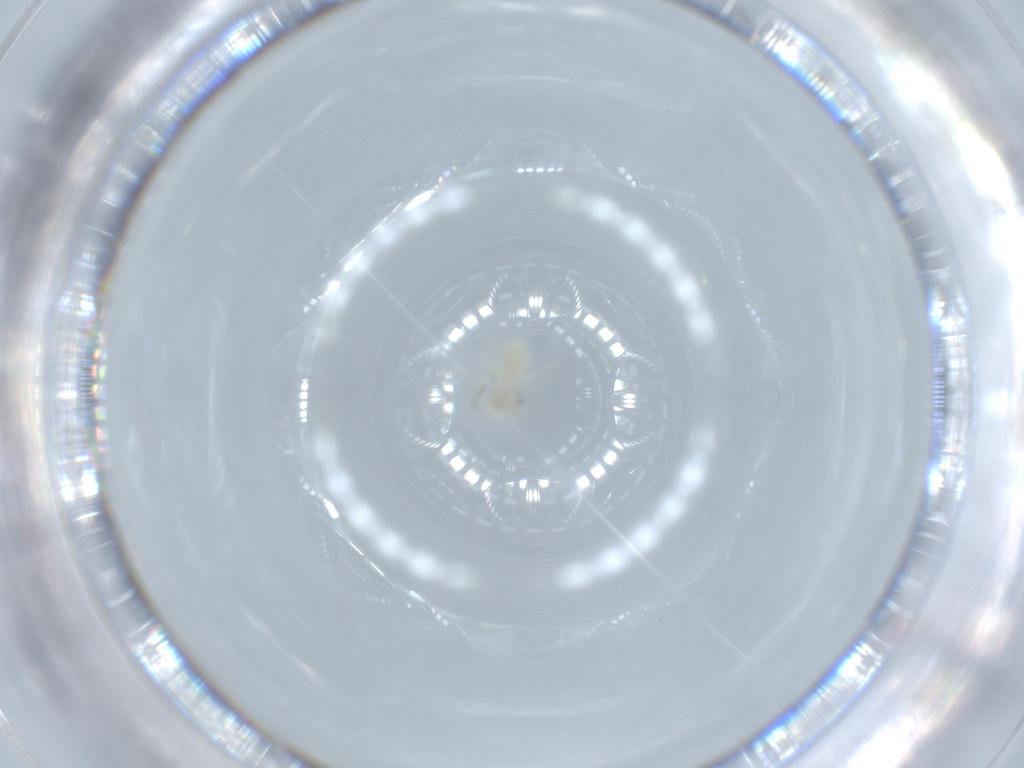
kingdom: Animalia
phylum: Arthropoda
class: Insecta
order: Psocodea
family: Caeciliusidae
